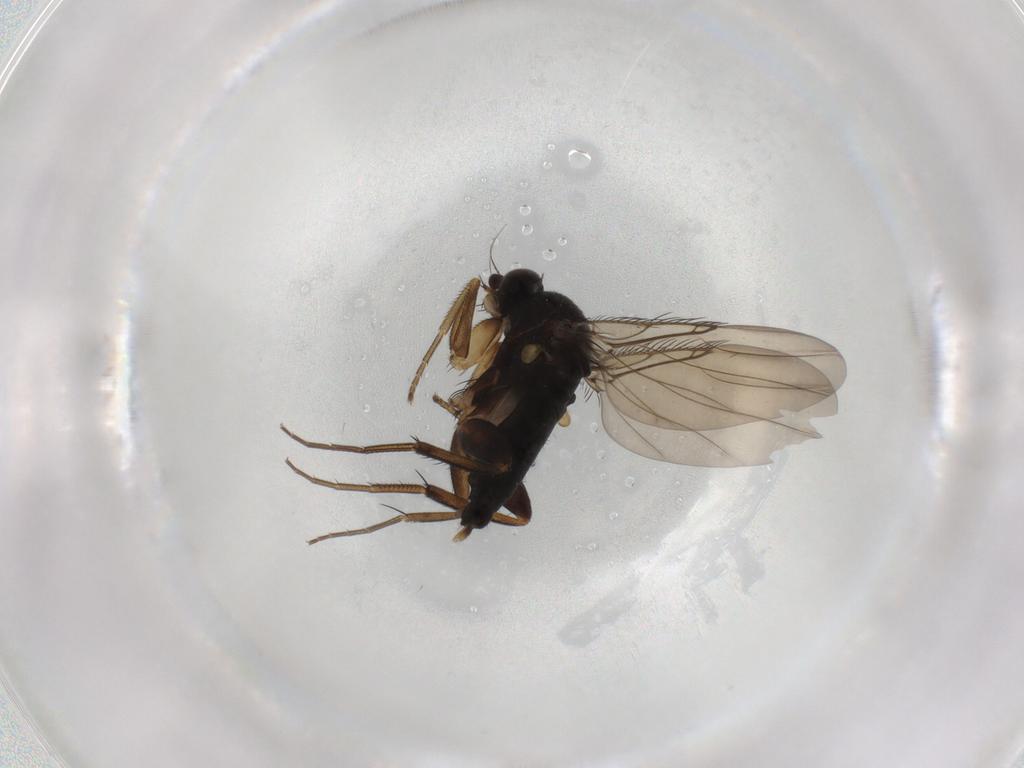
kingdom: Animalia
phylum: Arthropoda
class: Insecta
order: Diptera
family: Phoridae
